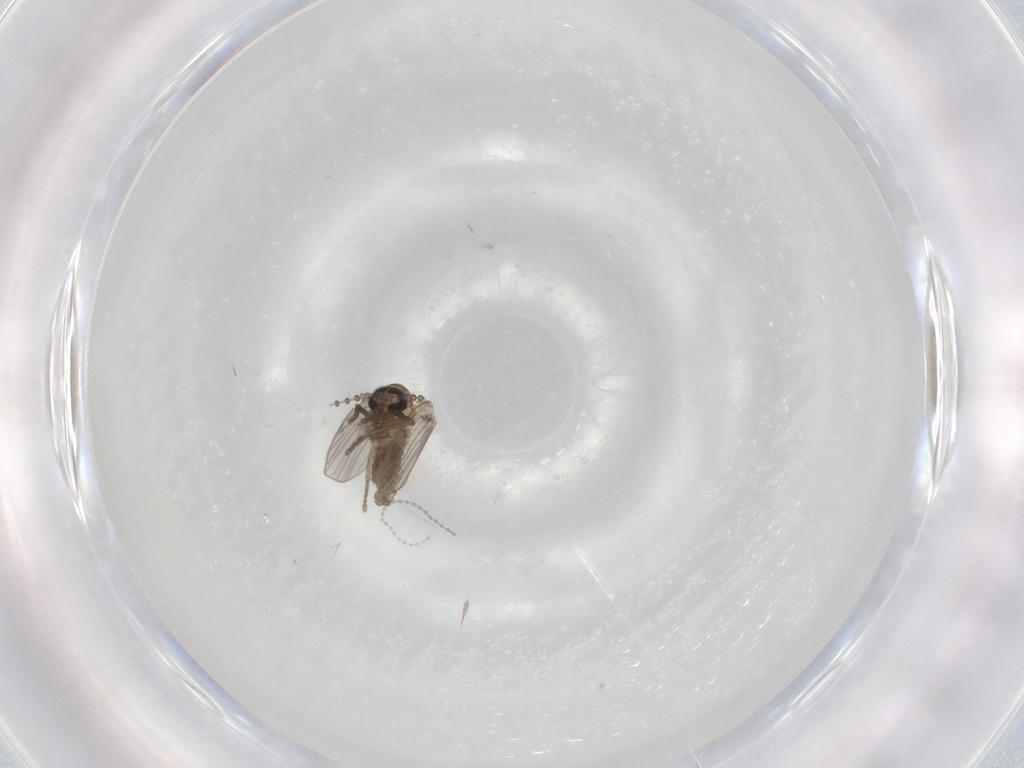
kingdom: Animalia
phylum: Arthropoda
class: Insecta
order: Diptera
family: Psychodidae
